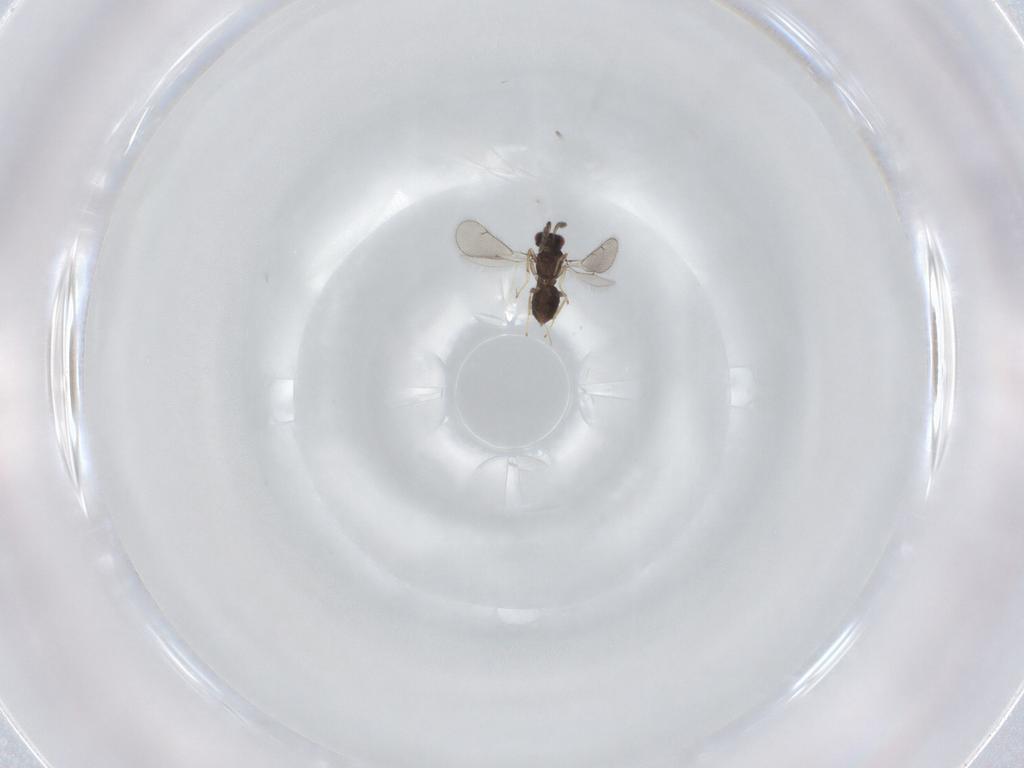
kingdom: Animalia
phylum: Arthropoda
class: Insecta
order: Hymenoptera
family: Eulophidae
